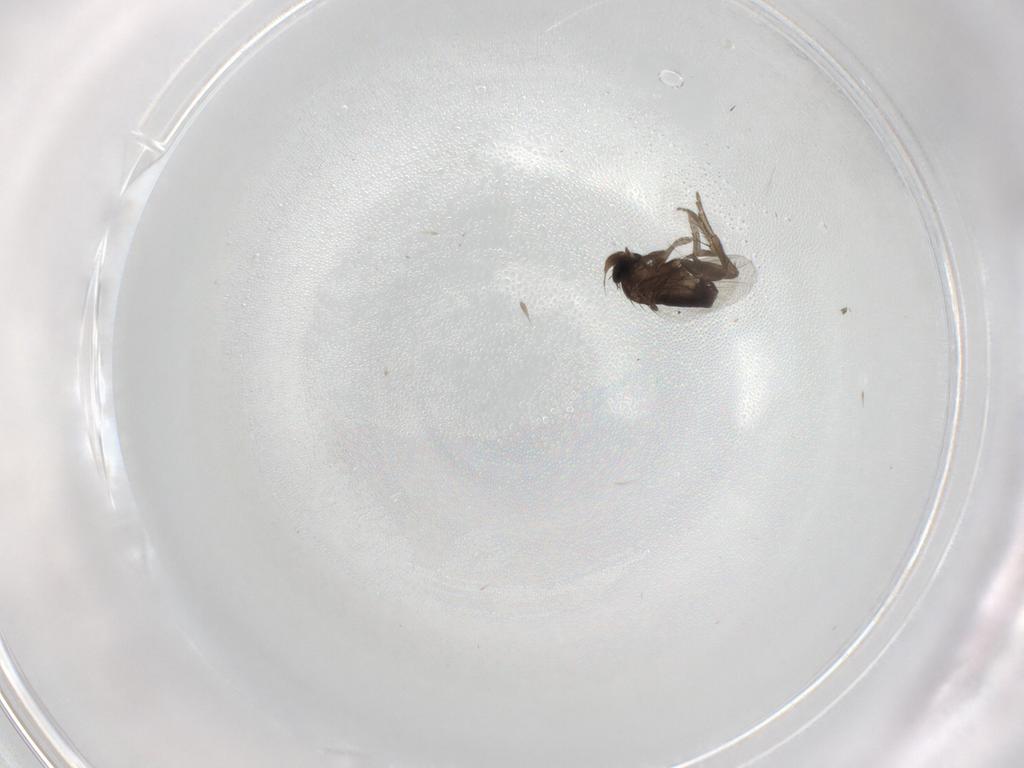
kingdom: Animalia
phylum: Arthropoda
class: Insecta
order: Diptera
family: Phoridae
